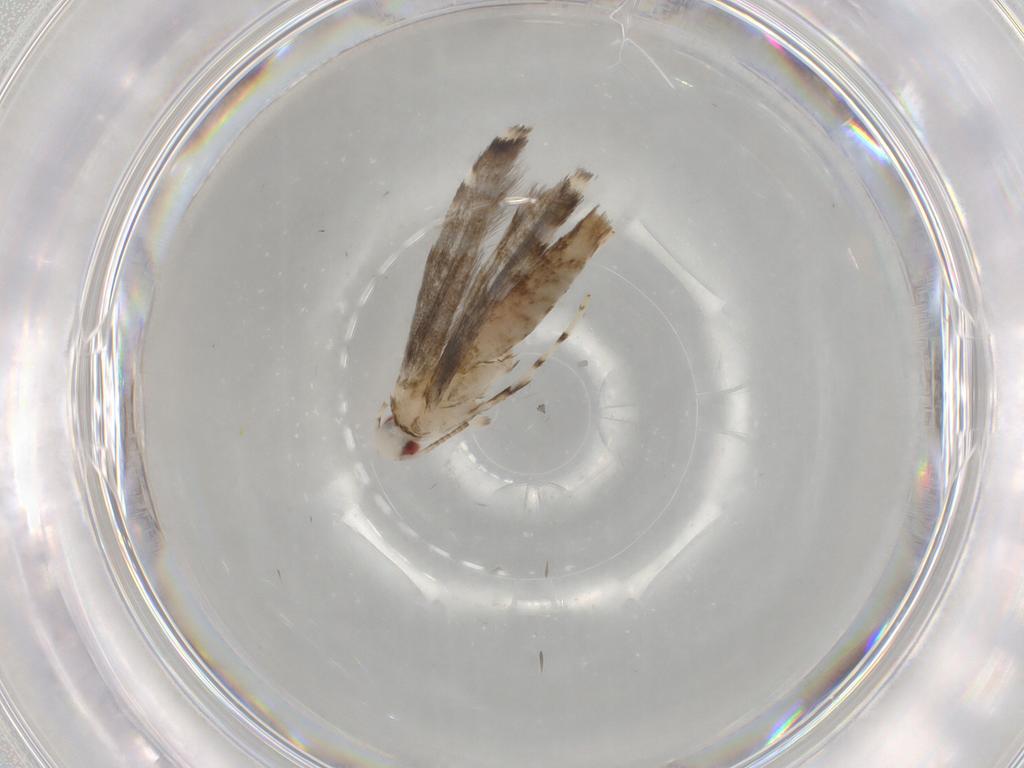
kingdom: Animalia
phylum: Arthropoda
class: Insecta
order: Lepidoptera
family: Gracillariidae
